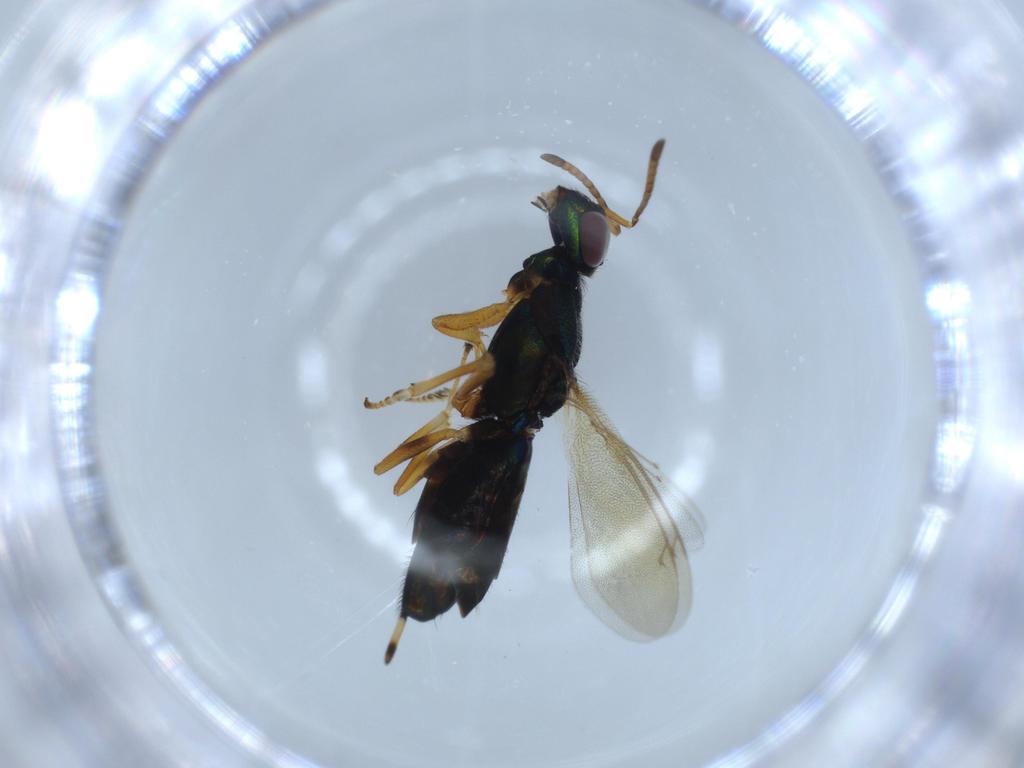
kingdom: Animalia
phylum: Arthropoda
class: Insecta
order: Hymenoptera
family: Eupelmidae
